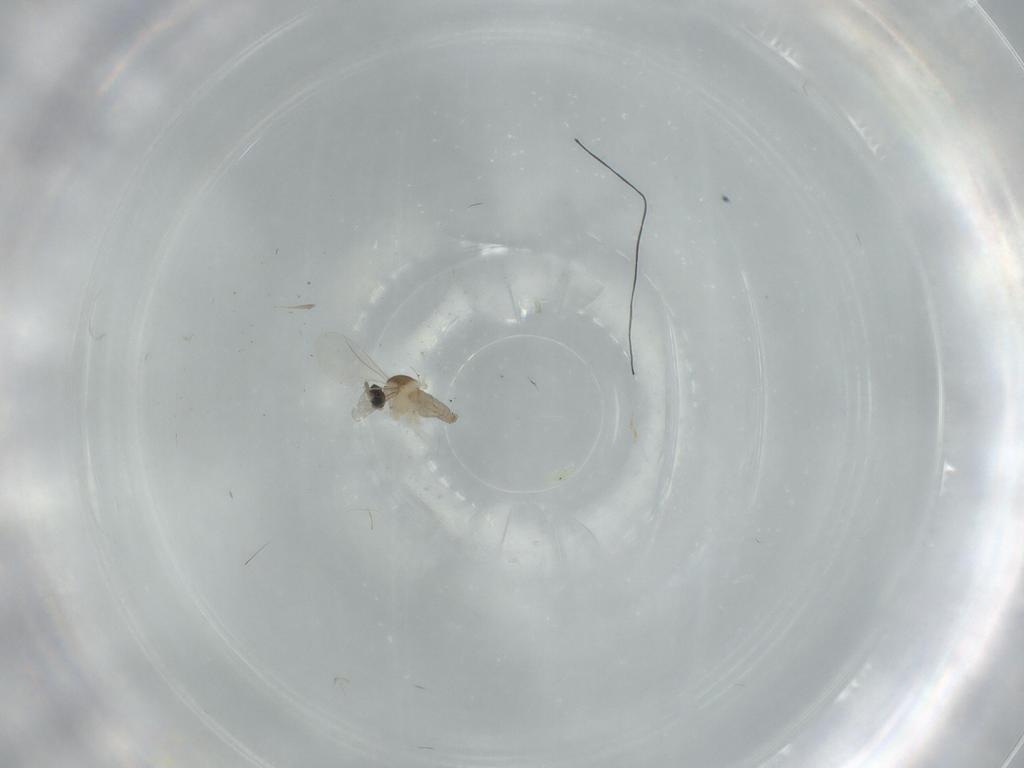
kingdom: Animalia
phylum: Arthropoda
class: Insecta
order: Diptera
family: Cecidomyiidae
